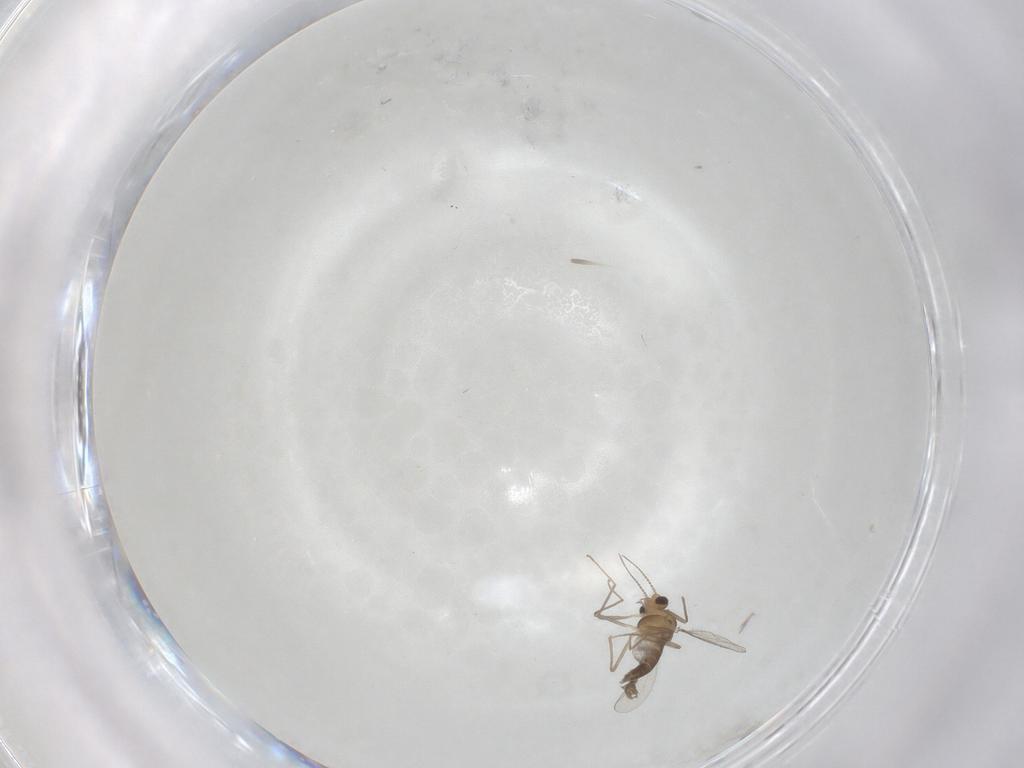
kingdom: Animalia
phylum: Arthropoda
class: Insecta
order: Diptera
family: Chironomidae
